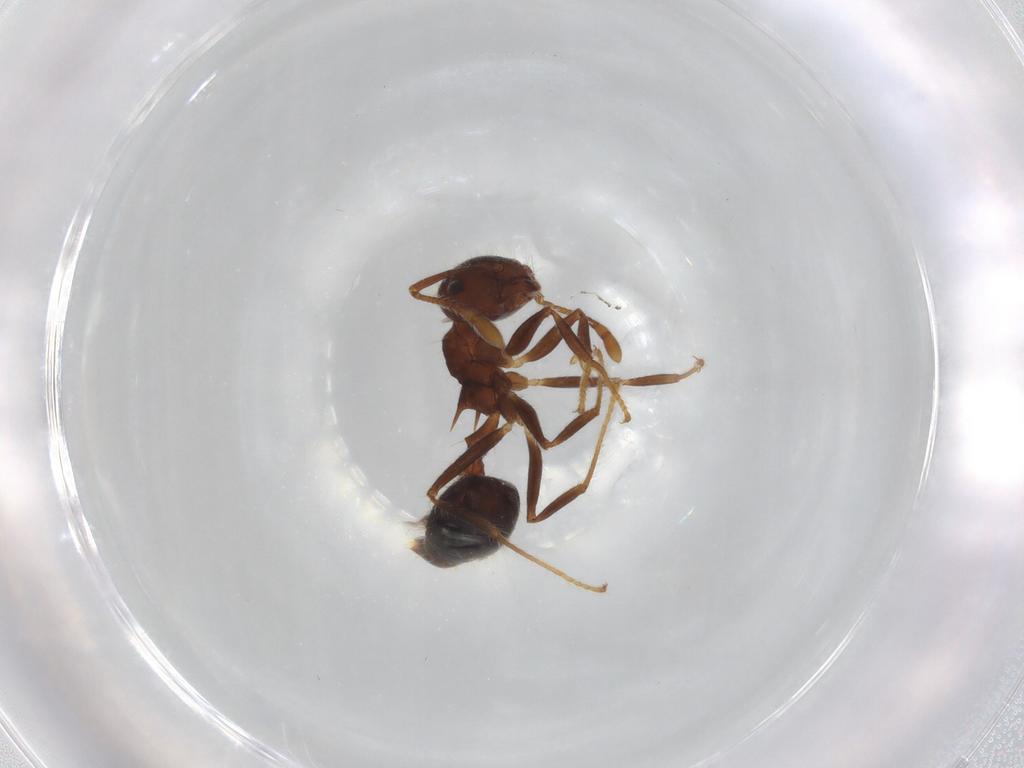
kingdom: Animalia
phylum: Arthropoda
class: Insecta
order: Hymenoptera
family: Diapriidae
